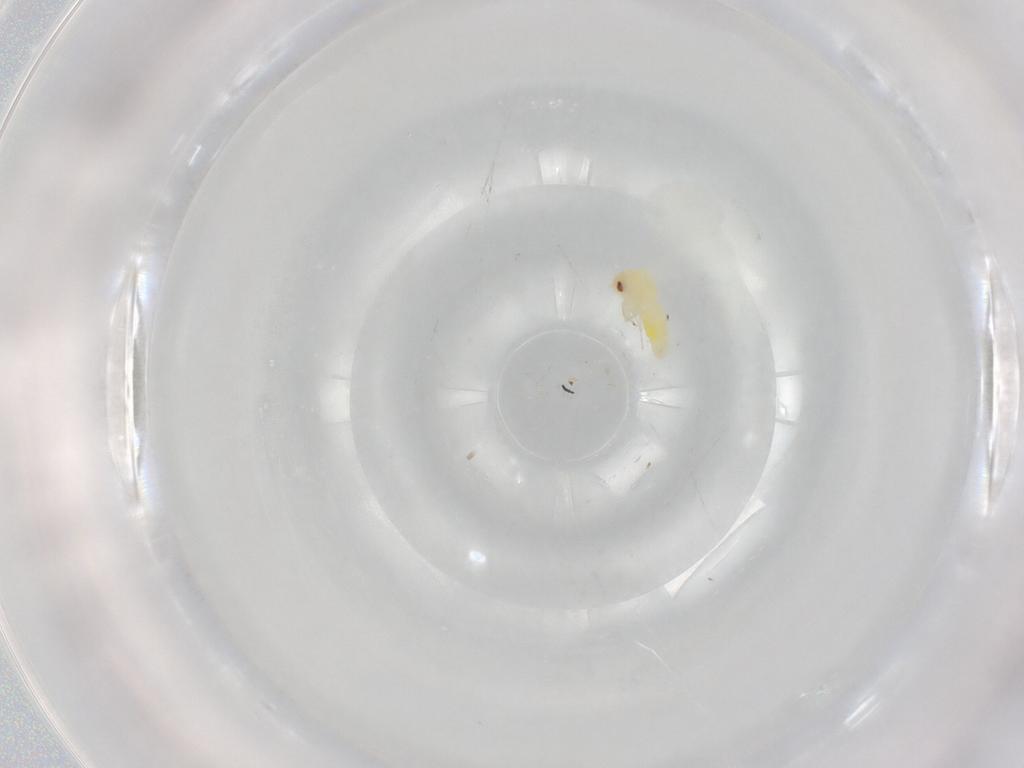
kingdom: Animalia
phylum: Arthropoda
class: Insecta
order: Hemiptera
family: Aleyrodidae
